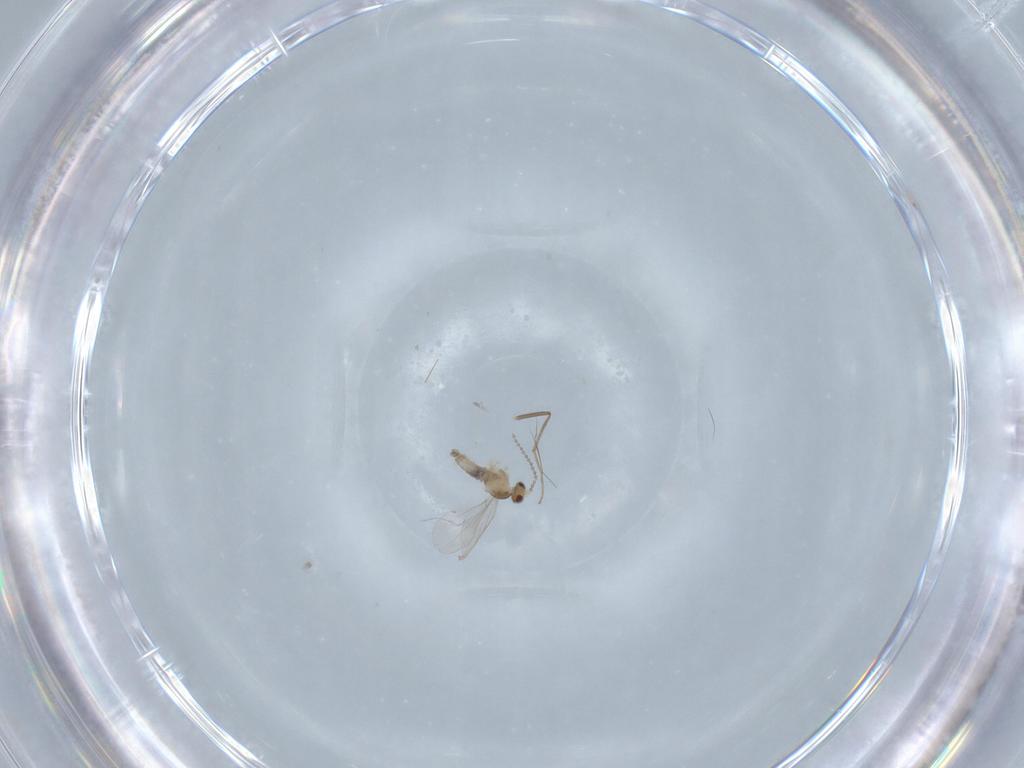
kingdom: Animalia
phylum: Arthropoda
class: Insecta
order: Diptera
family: Chironomidae
